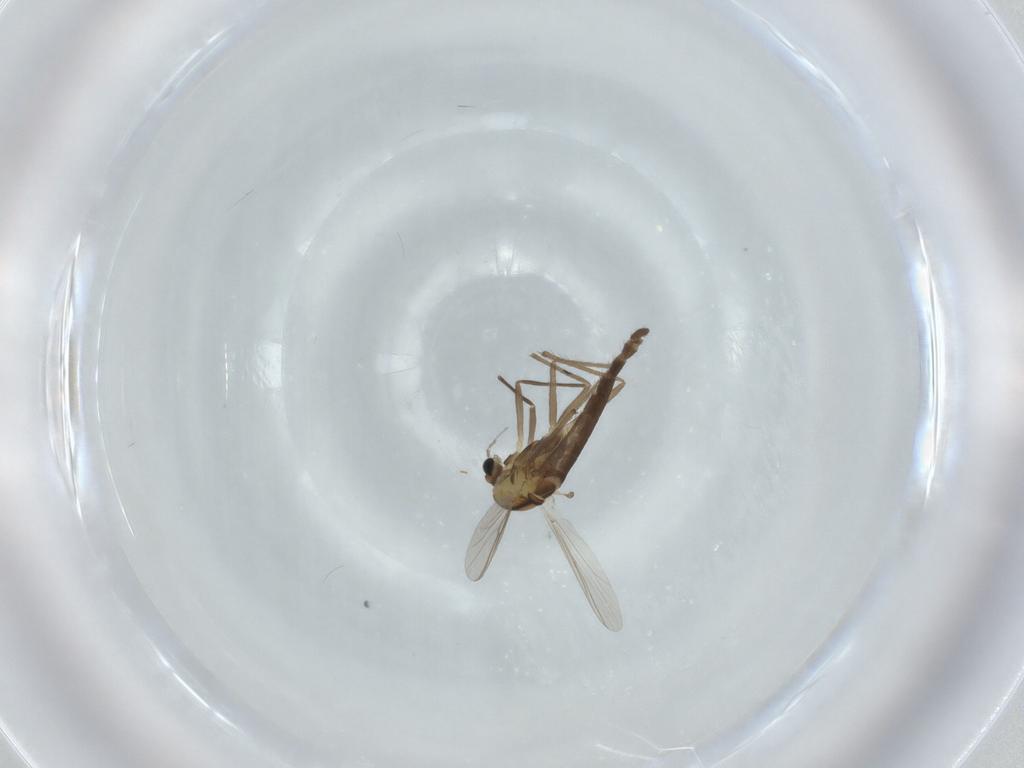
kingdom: Animalia
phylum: Arthropoda
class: Insecta
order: Diptera
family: Chironomidae
